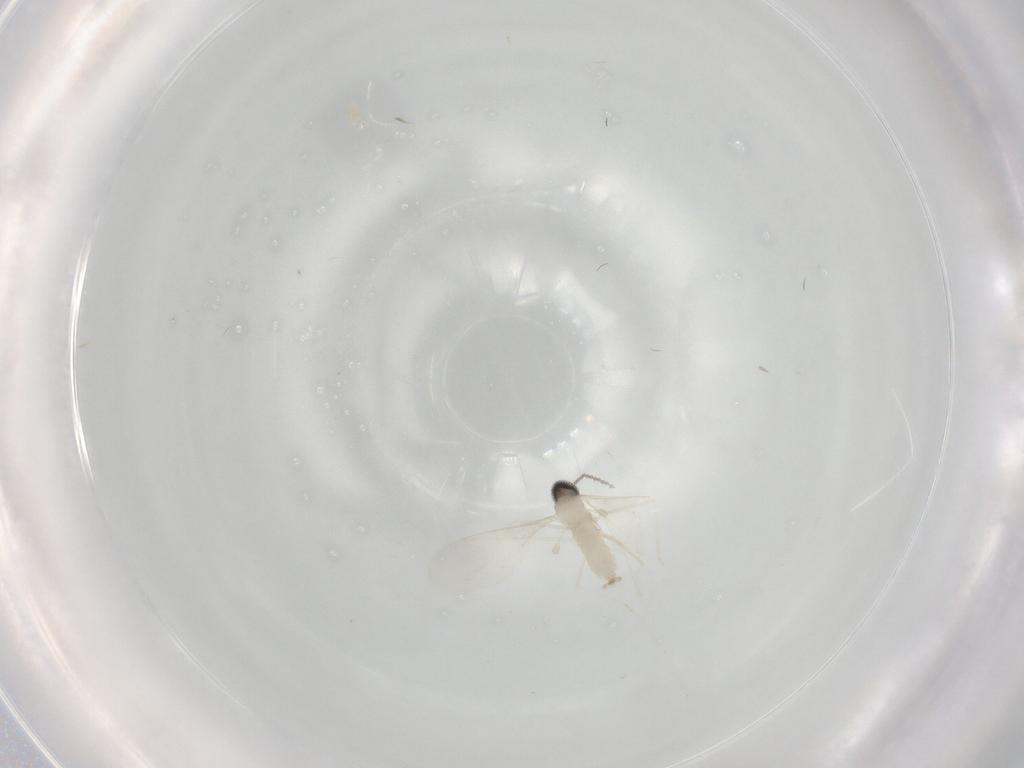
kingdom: Animalia
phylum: Arthropoda
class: Insecta
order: Diptera
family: Cecidomyiidae
